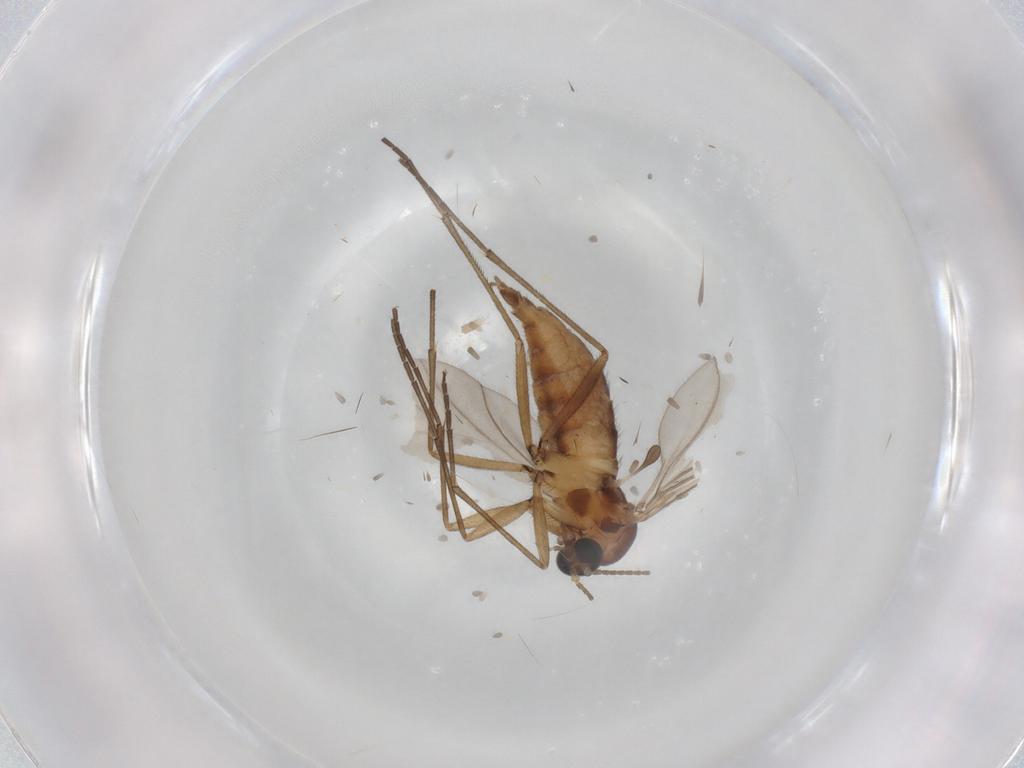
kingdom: Animalia
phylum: Arthropoda
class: Insecta
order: Diptera
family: Sciaridae
